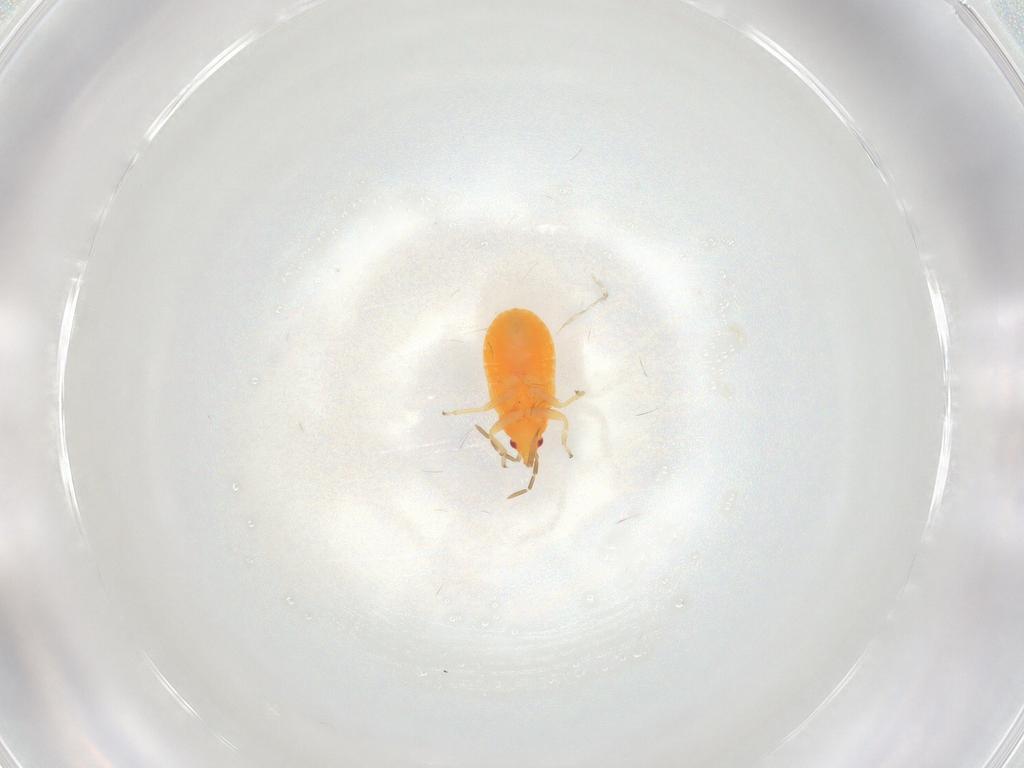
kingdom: Animalia
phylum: Arthropoda
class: Insecta
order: Hemiptera
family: Anthocoridae
